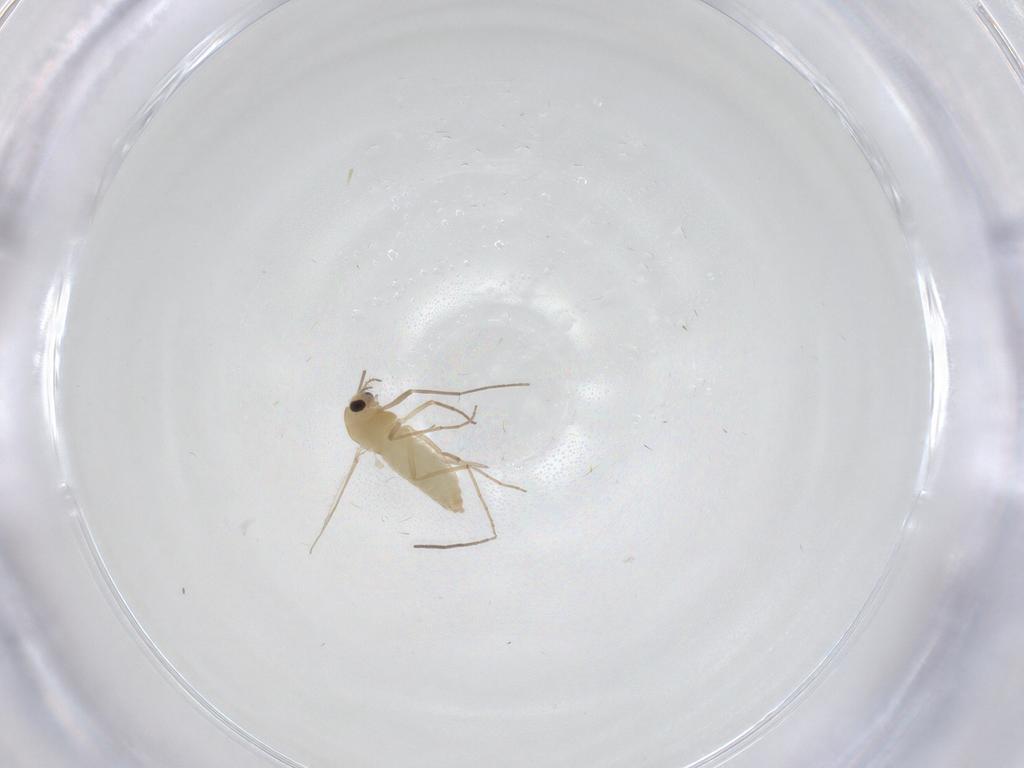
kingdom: Animalia
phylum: Arthropoda
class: Insecta
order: Diptera
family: Chironomidae
